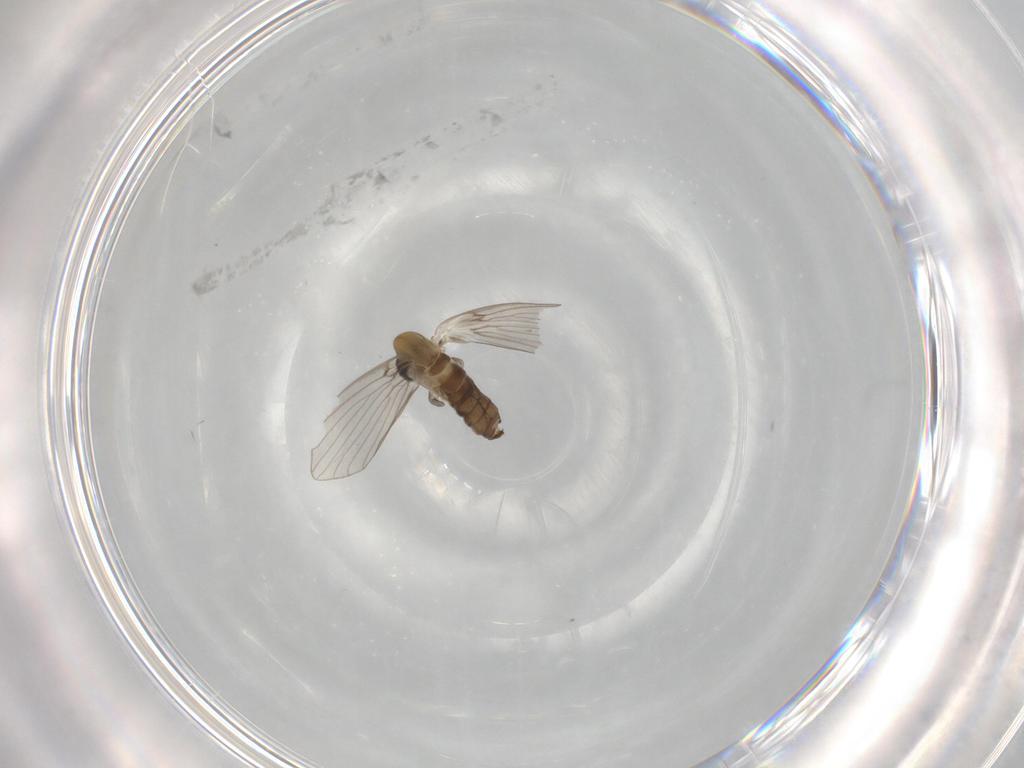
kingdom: Animalia
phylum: Arthropoda
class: Insecta
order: Diptera
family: Psychodidae
